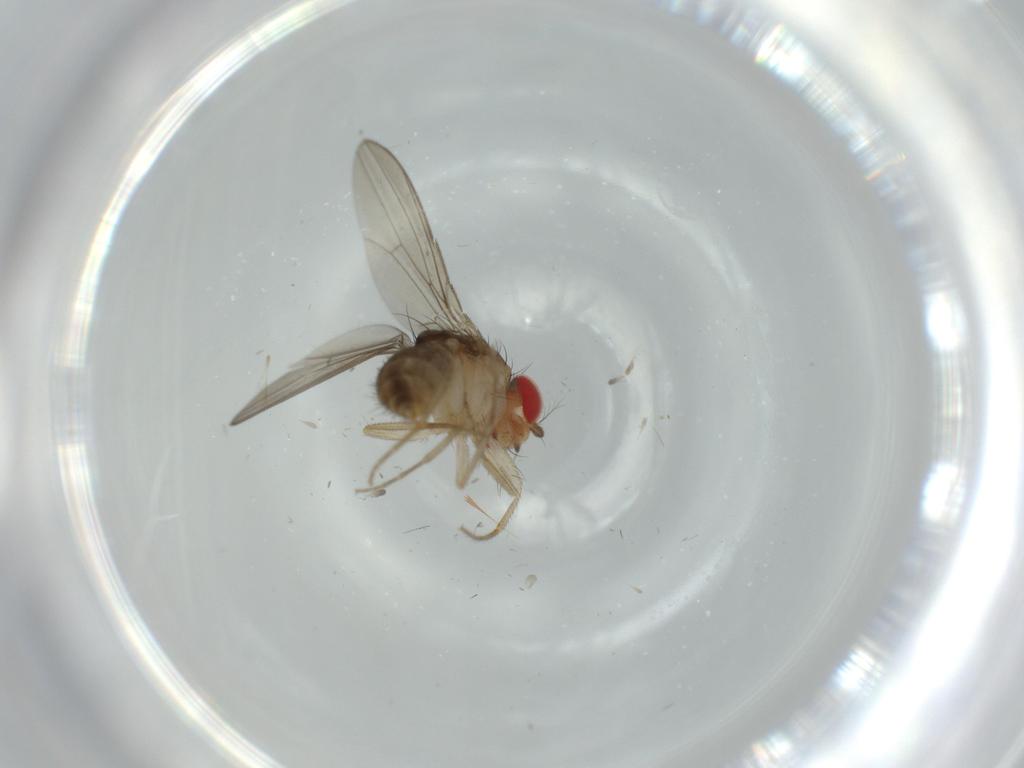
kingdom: Animalia
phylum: Arthropoda
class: Insecta
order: Diptera
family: Drosophilidae
